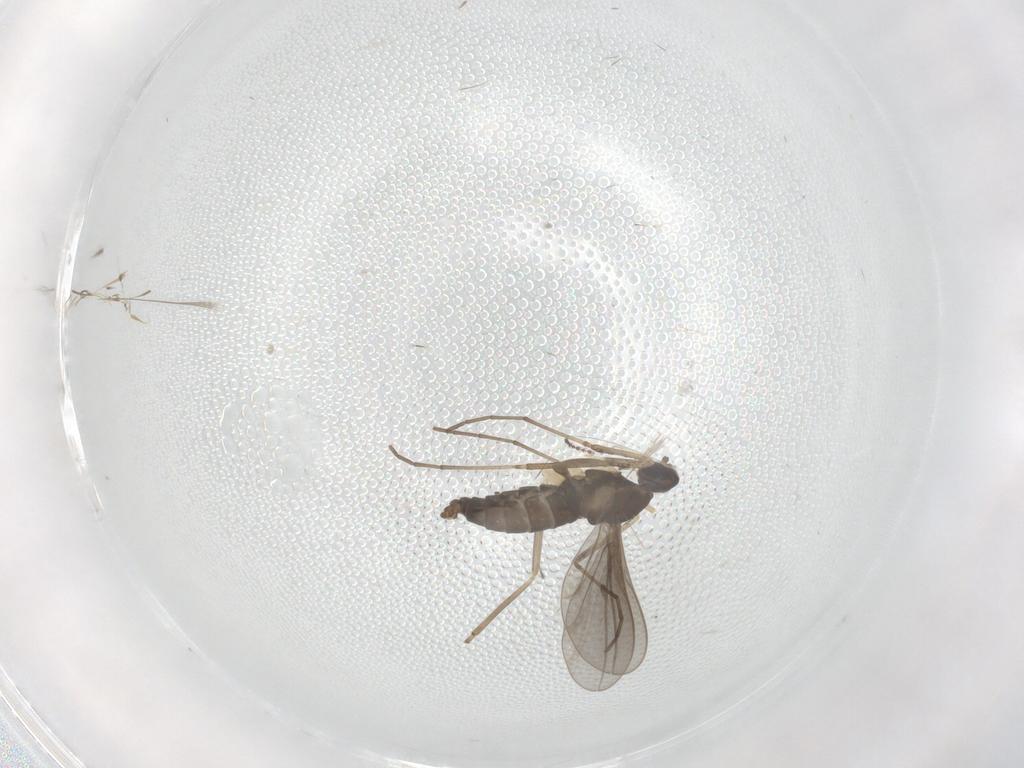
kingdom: Animalia
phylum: Arthropoda
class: Insecta
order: Diptera
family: Cecidomyiidae
